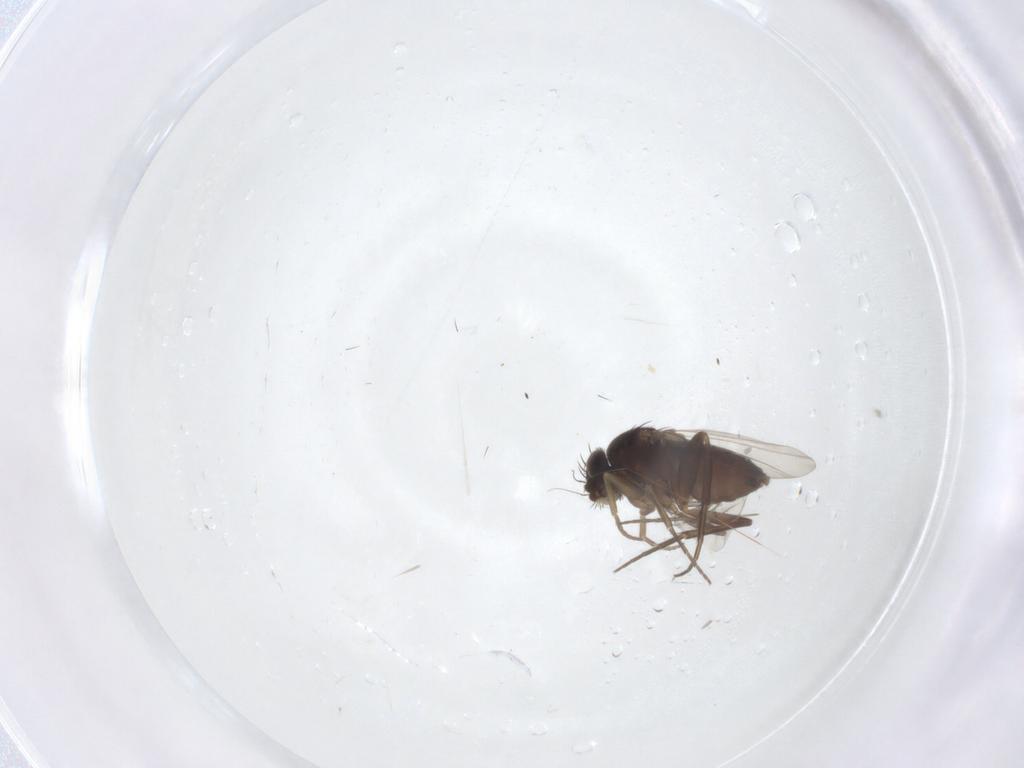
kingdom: Animalia
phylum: Arthropoda
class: Insecta
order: Diptera
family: Phoridae
